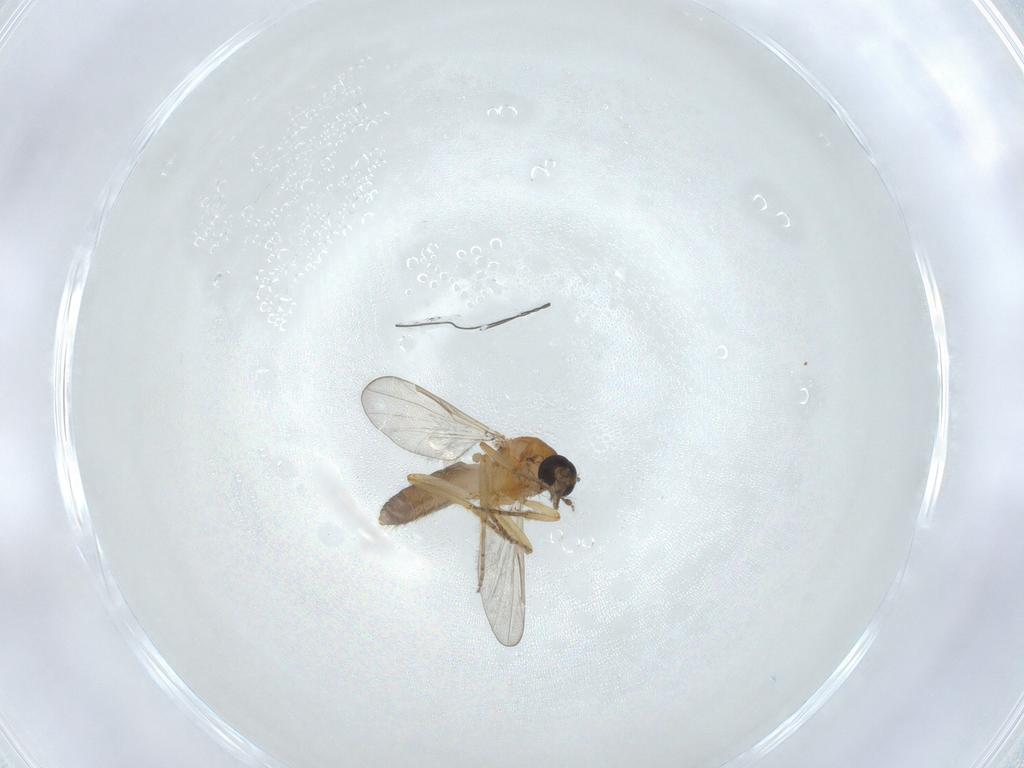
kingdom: Animalia
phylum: Arthropoda
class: Insecta
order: Diptera
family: Ceratopogonidae
